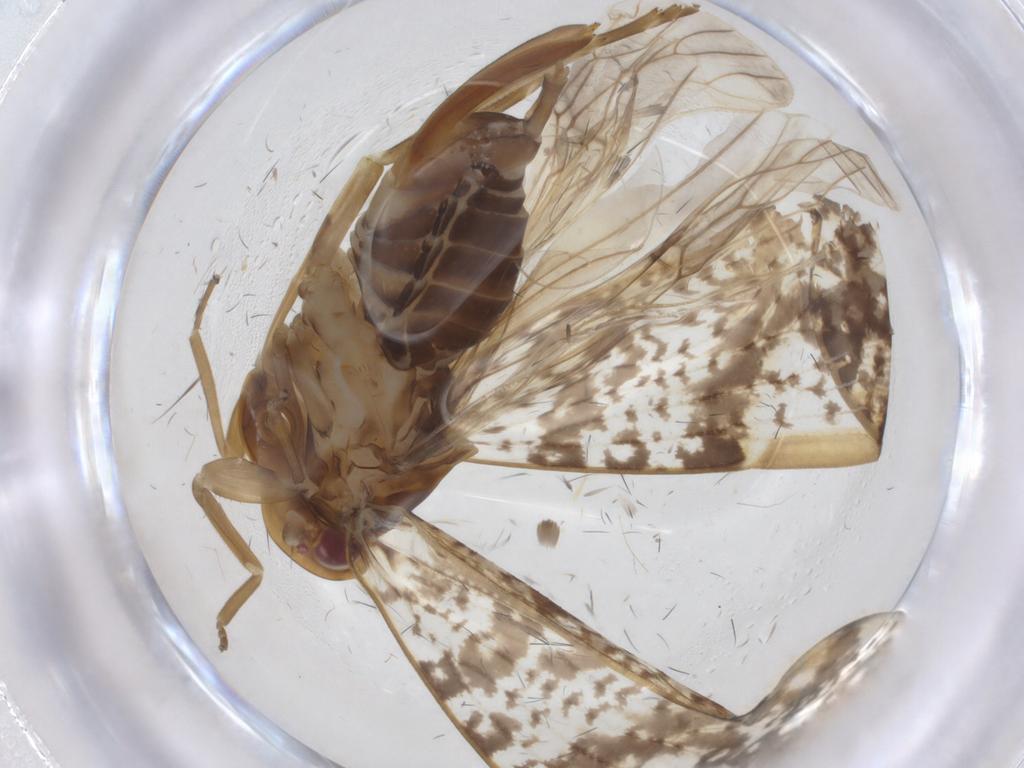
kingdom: Animalia
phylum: Arthropoda
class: Insecta
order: Hemiptera
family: Cixiidae
